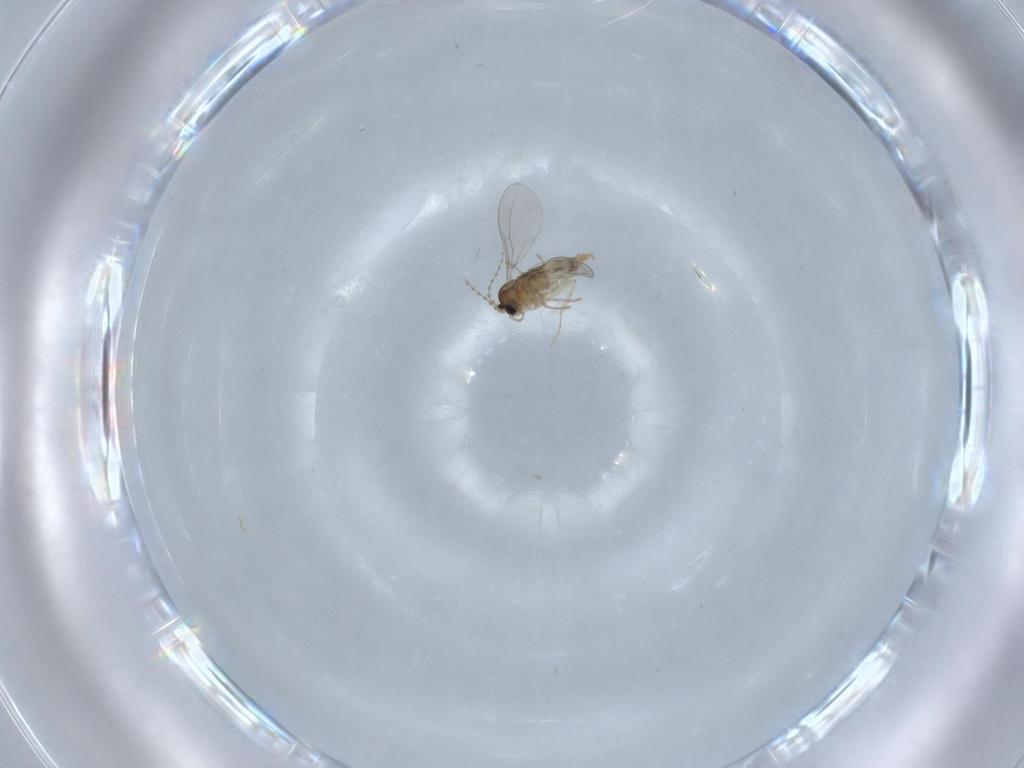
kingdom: Animalia
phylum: Arthropoda
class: Insecta
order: Diptera
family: Cecidomyiidae
